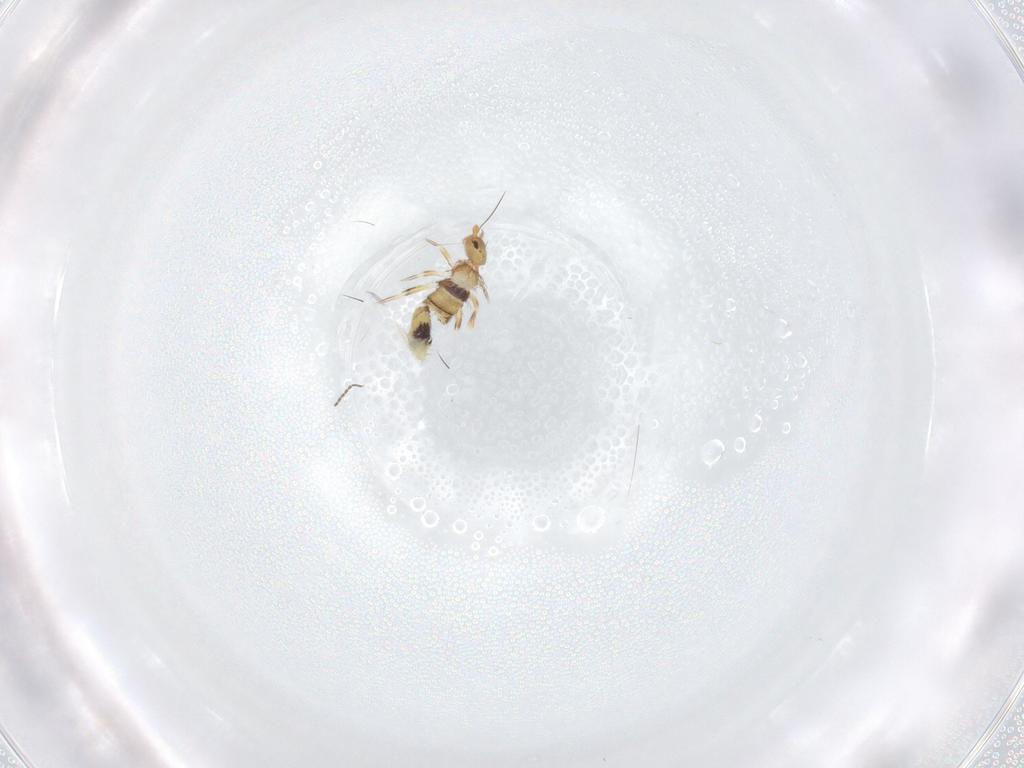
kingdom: Animalia
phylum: Arthropoda
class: Collembola
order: Entomobryomorpha
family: Entomobryidae
